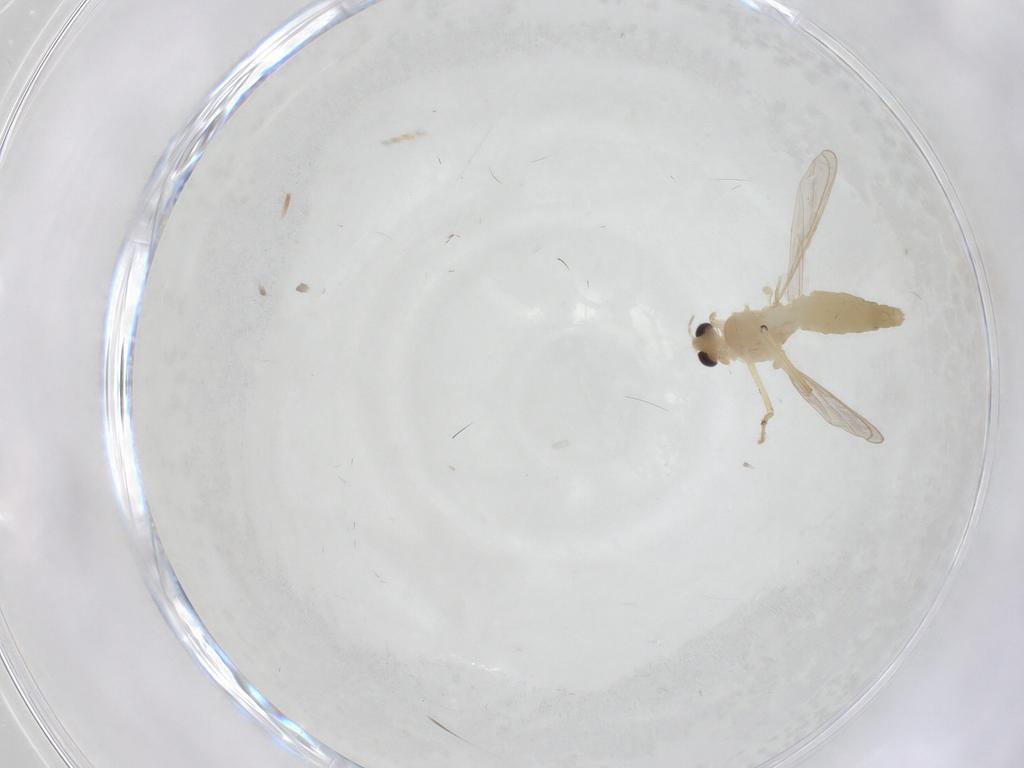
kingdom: Animalia
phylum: Arthropoda
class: Insecta
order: Diptera
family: Chironomidae
